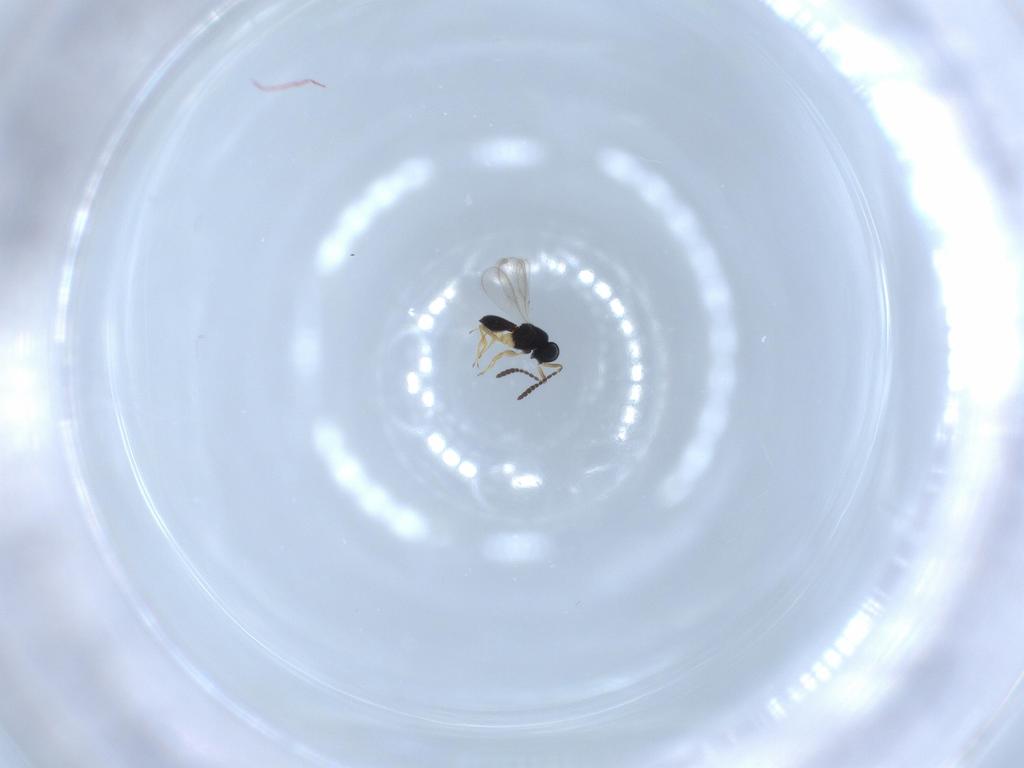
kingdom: Animalia
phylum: Arthropoda
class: Insecta
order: Hymenoptera
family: Scelionidae
